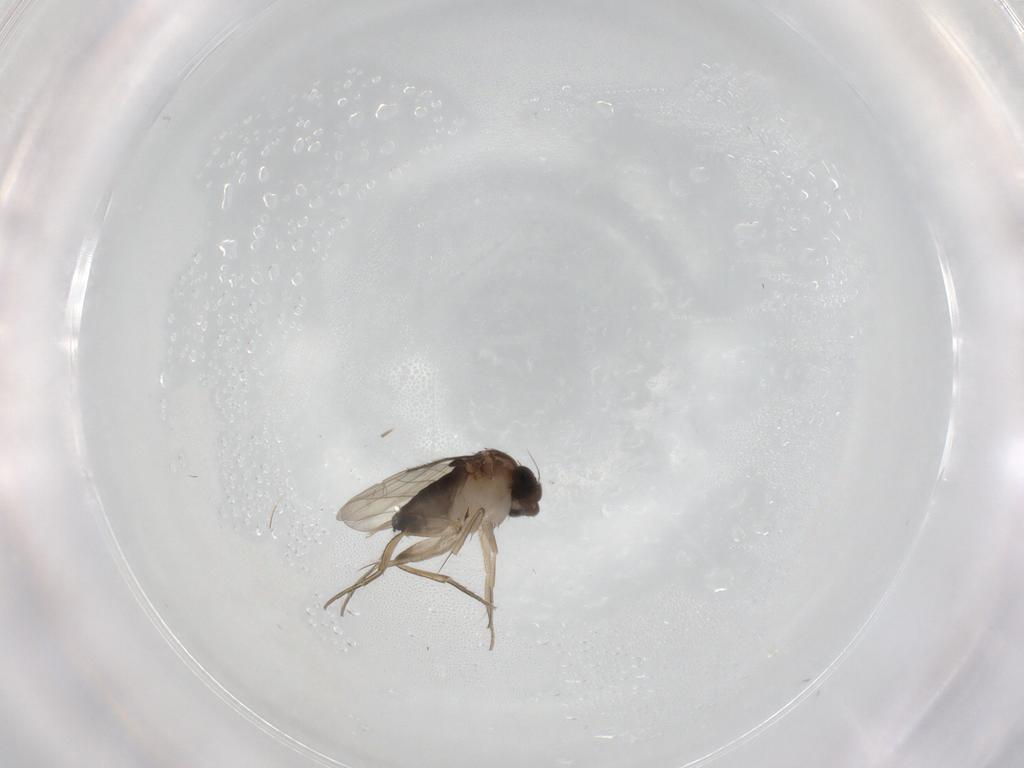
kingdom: Animalia
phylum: Arthropoda
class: Insecta
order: Diptera
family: Phoridae
